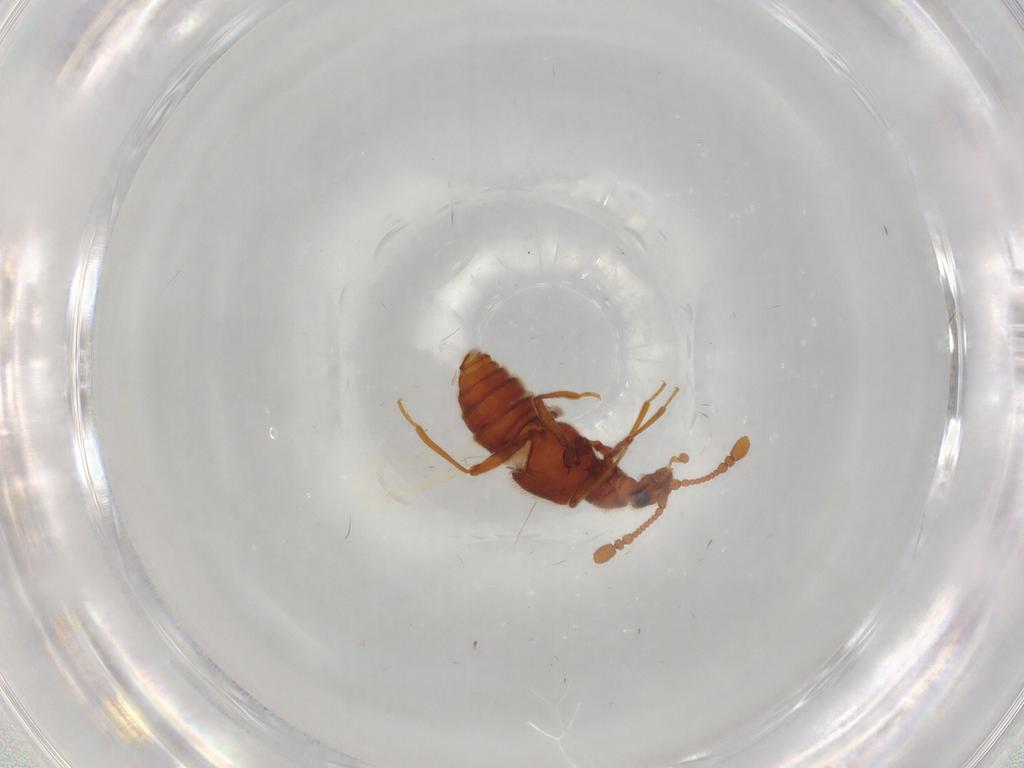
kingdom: Animalia
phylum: Arthropoda
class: Insecta
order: Coleoptera
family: Staphylinidae
